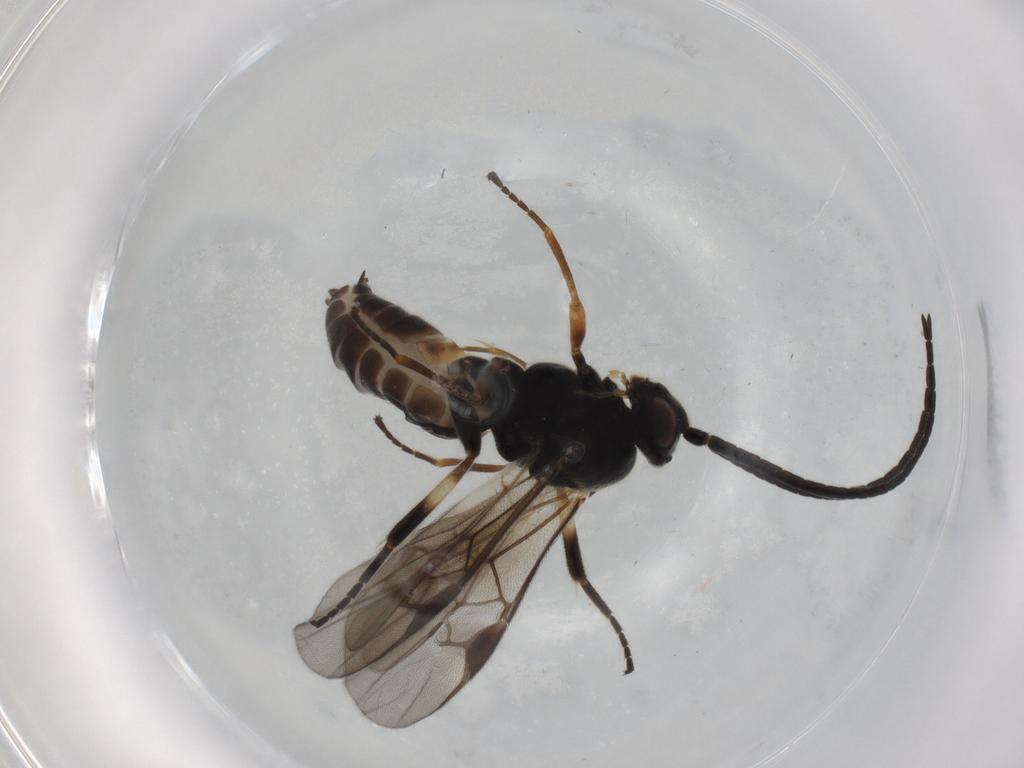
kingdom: Animalia
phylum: Arthropoda
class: Insecta
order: Hymenoptera
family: Braconidae
